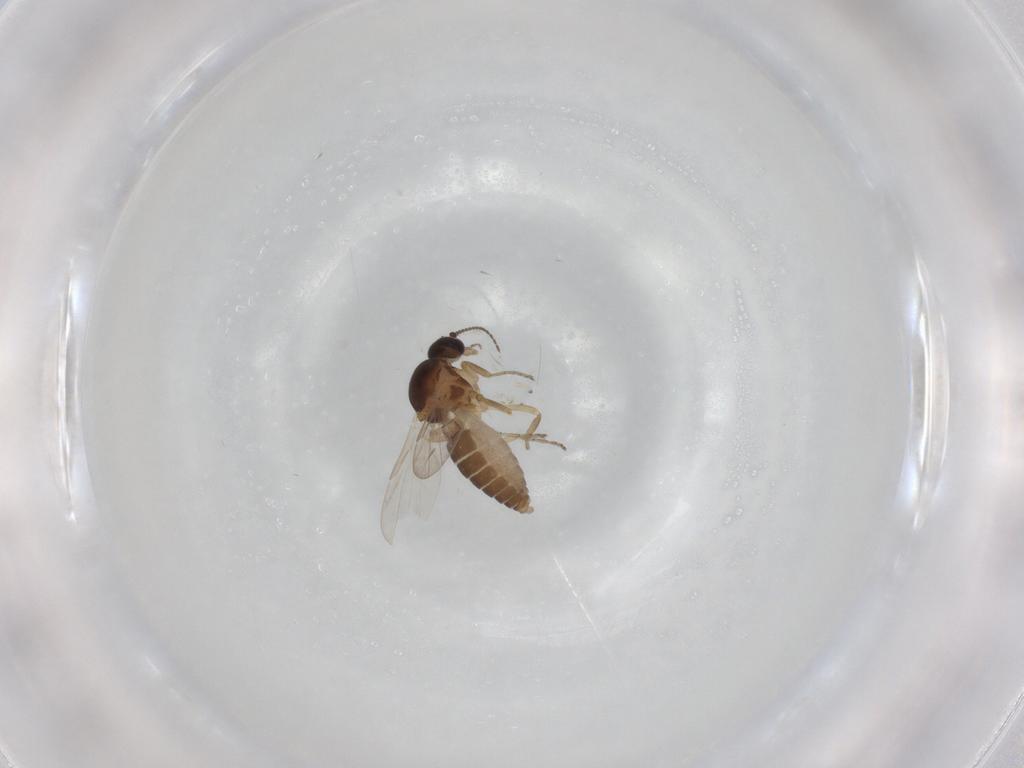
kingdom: Animalia
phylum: Arthropoda
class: Insecta
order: Diptera
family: Ceratopogonidae
